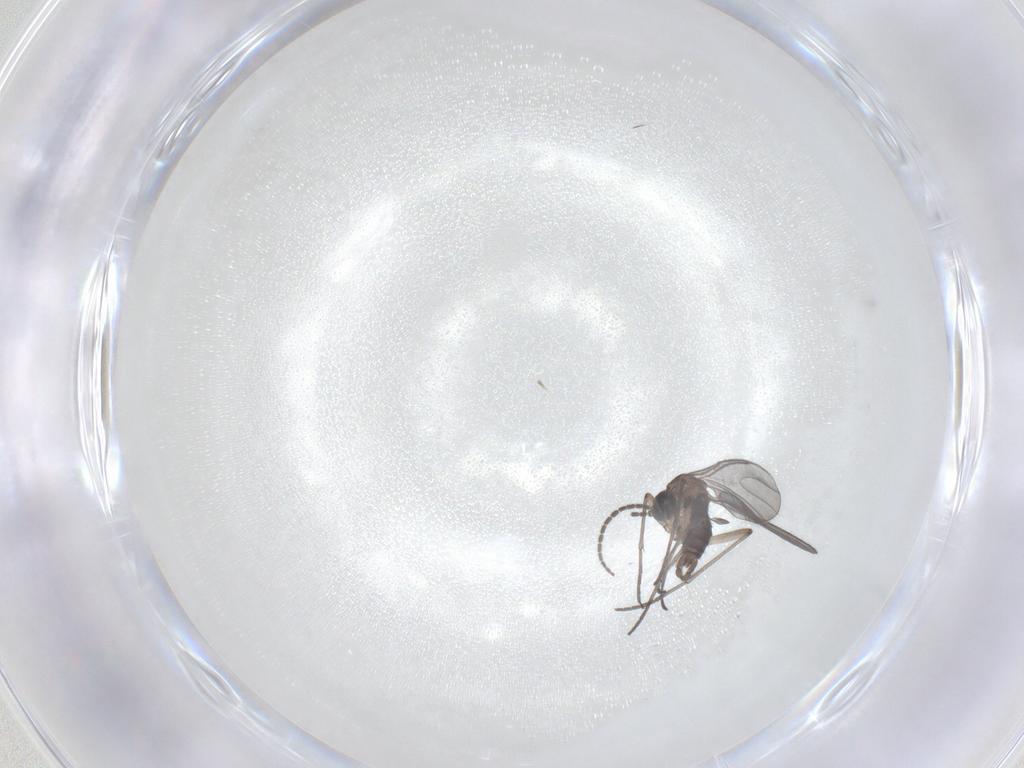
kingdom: Animalia
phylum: Arthropoda
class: Insecta
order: Diptera
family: Sciaridae
